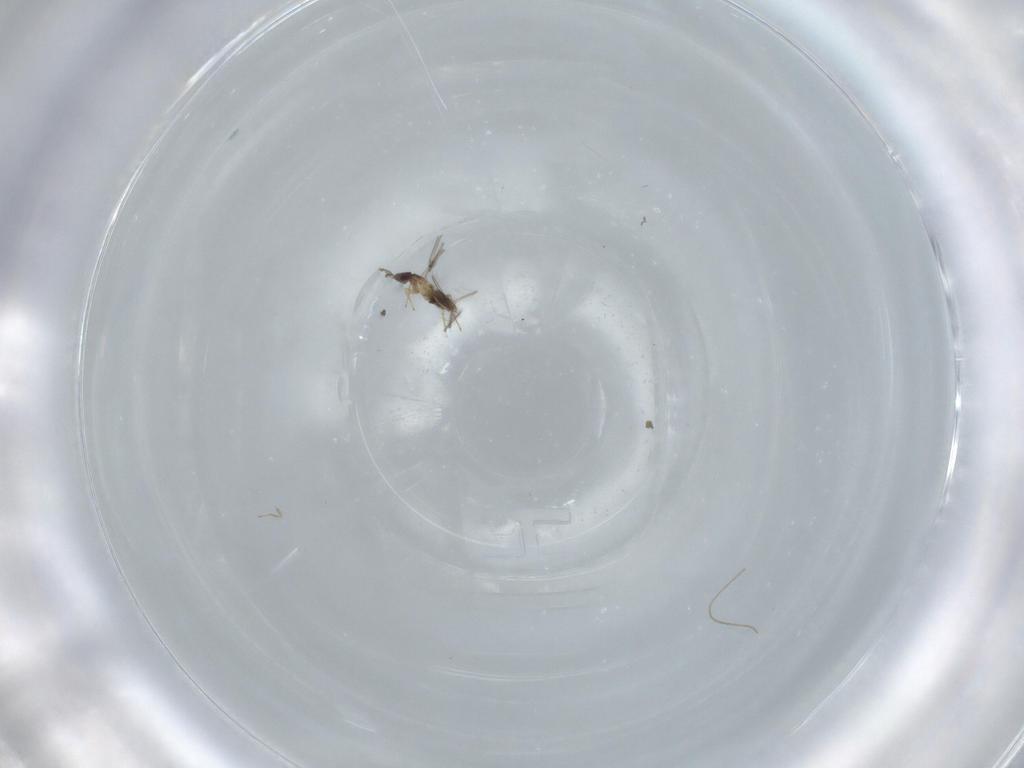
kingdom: Animalia
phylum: Arthropoda
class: Insecta
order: Hymenoptera
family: Mymaridae
